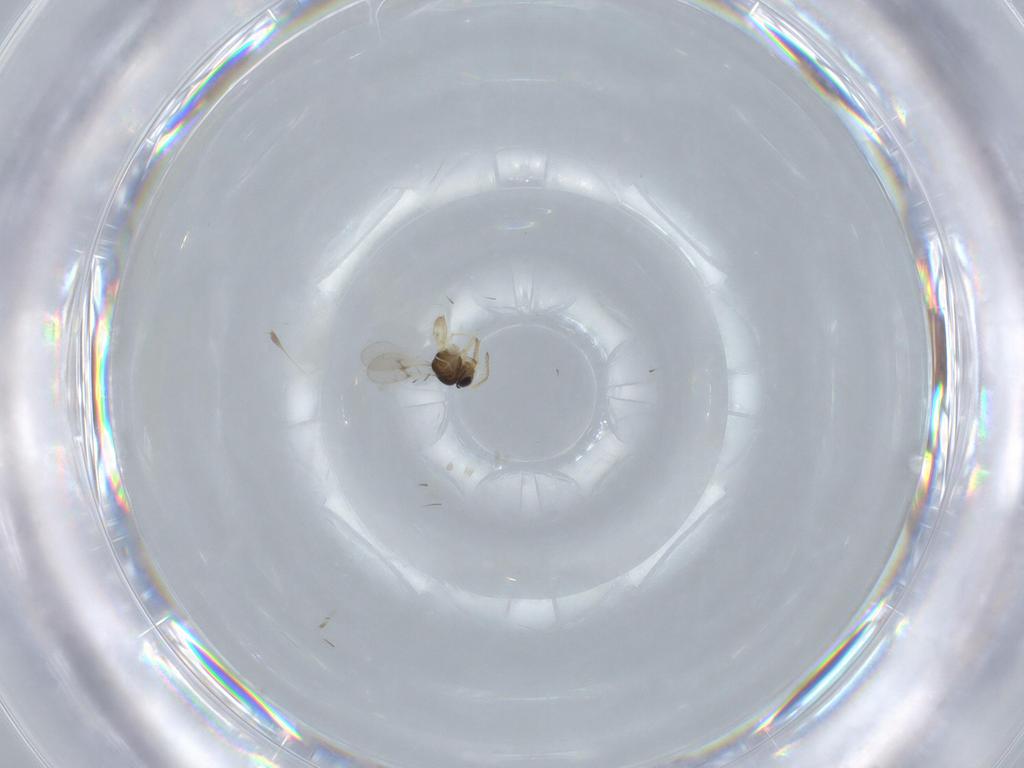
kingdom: Animalia
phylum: Arthropoda
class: Insecta
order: Hymenoptera
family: Scelionidae
